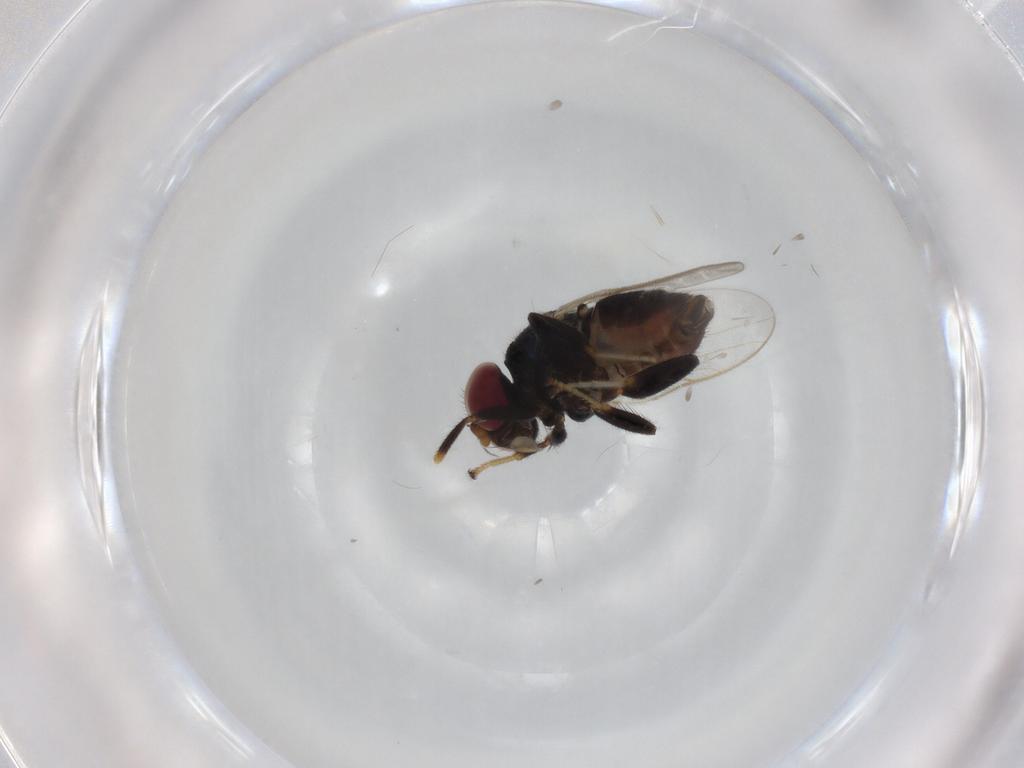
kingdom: Animalia
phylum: Arthropoda
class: Insecta
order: Diptera
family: Chloropidae
